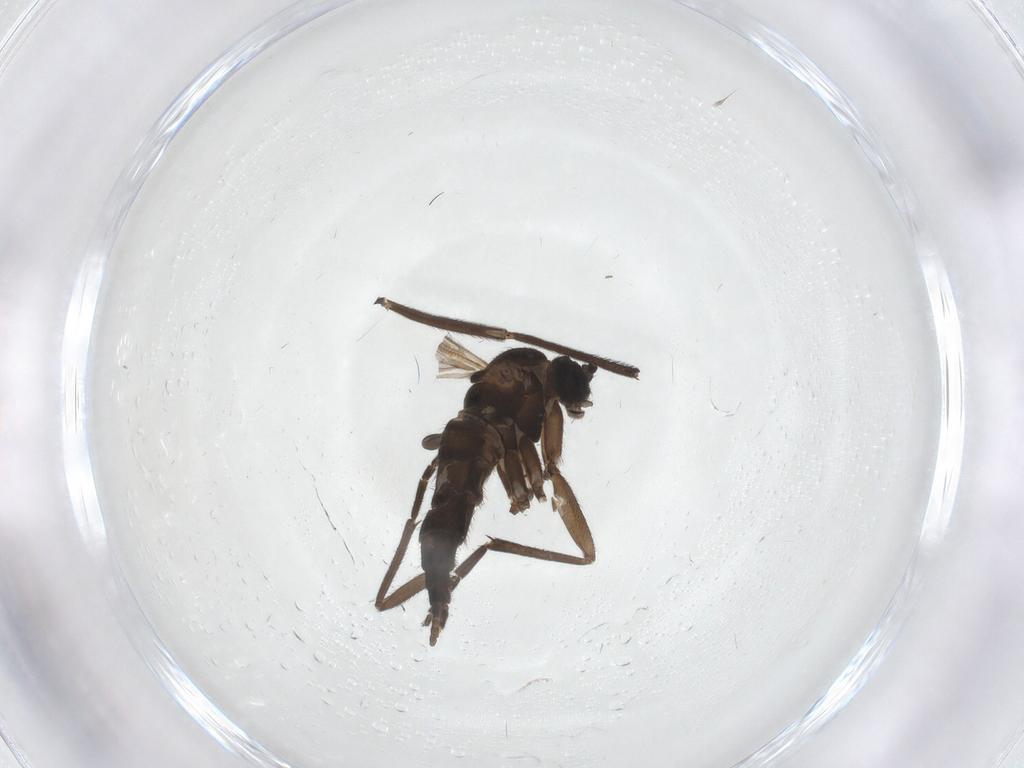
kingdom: Animalia
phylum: Arthropoda
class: Insecta
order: Diptera
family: Sciaridae
